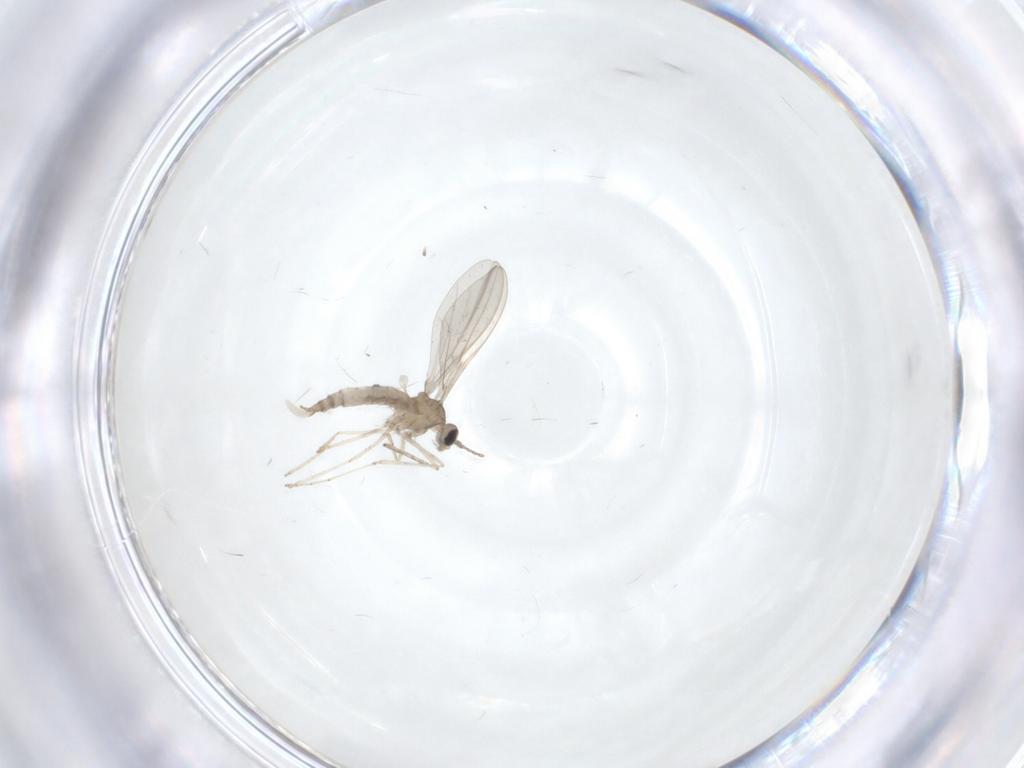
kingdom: Animalia
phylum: Arthropoda
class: Insecta
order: Diptera
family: Cecidomyiidae
